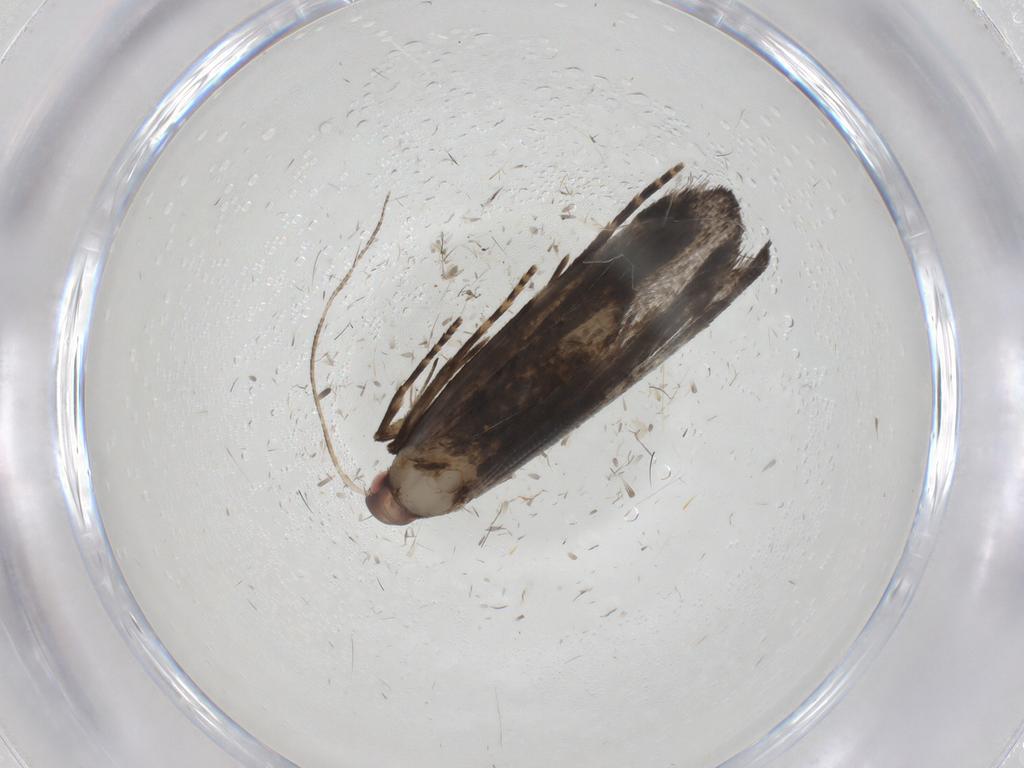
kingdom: Animalia
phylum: Arthropoda
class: Insecta
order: Lepidoptera
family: Gelechiidae
